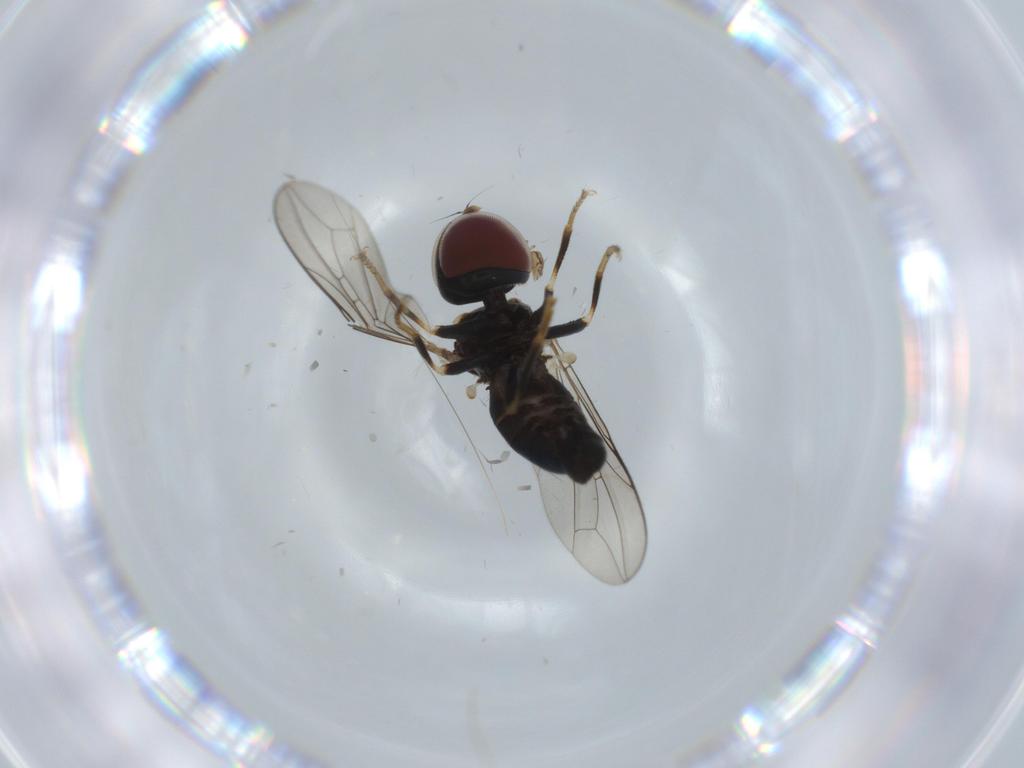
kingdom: Animalia
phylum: Arthropoda
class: Insecta
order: Diptera
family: Pipunculidae
